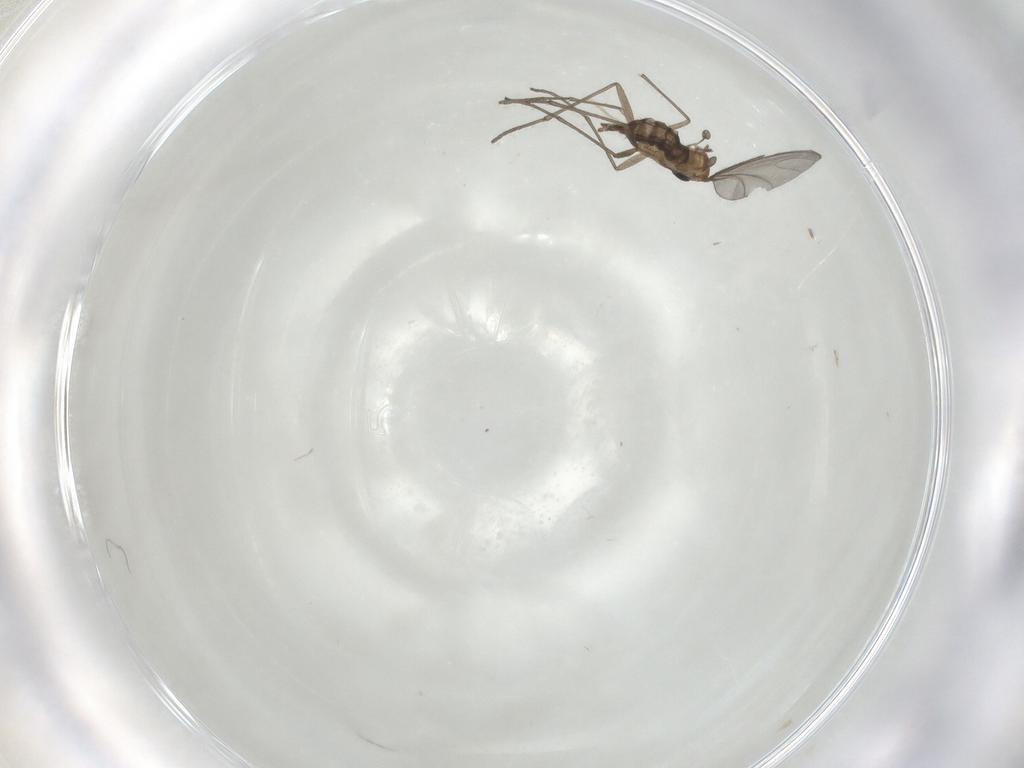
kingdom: Animalia
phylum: Arthropoda
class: Insecta
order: Diptera
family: Sciaridae
